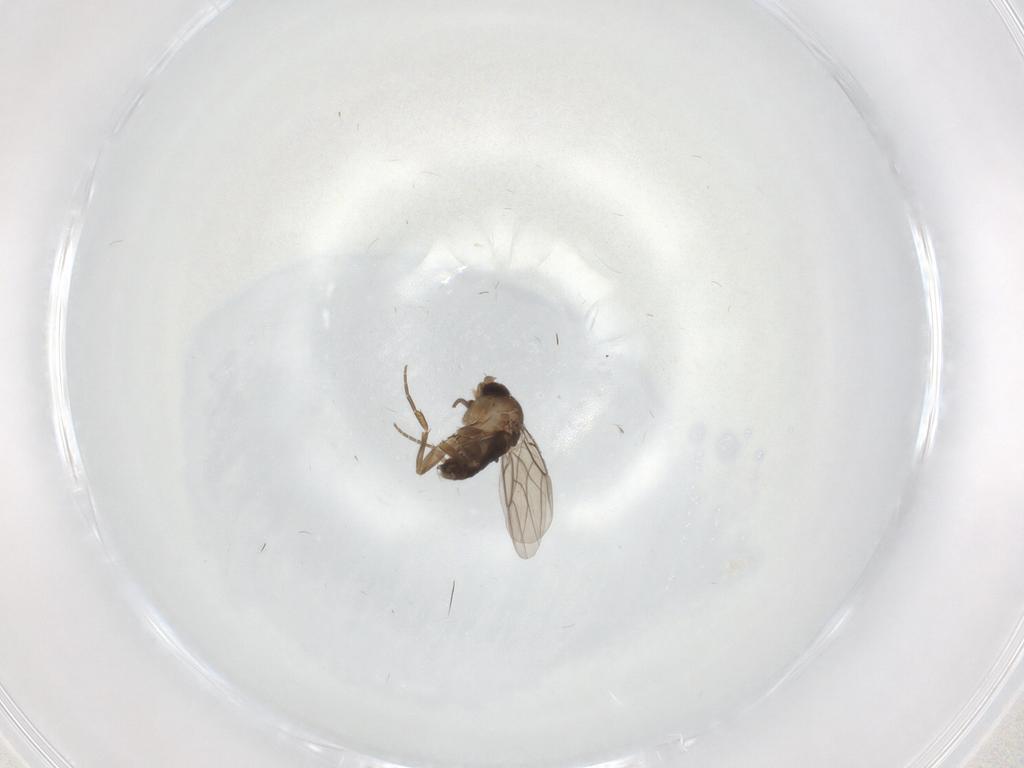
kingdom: Animalia
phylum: Arthropoda
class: Insecta
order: Diptera
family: Phoridae
